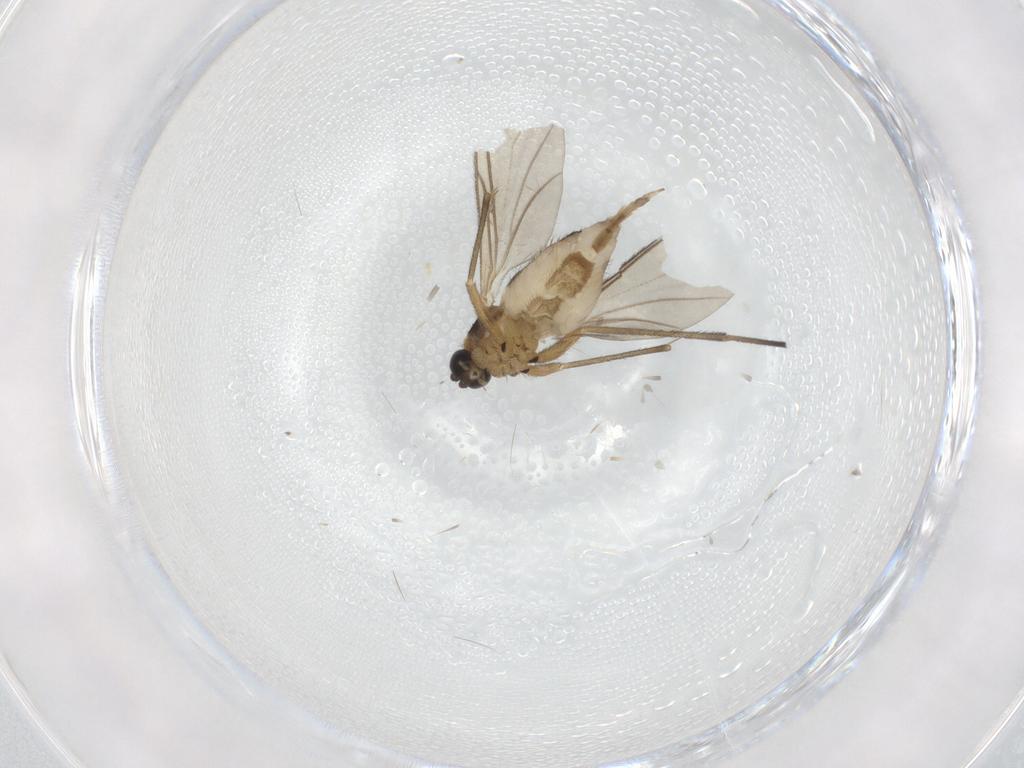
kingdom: Animalia
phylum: Arthropoda
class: Insecta
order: Diptera
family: Sciaridae
